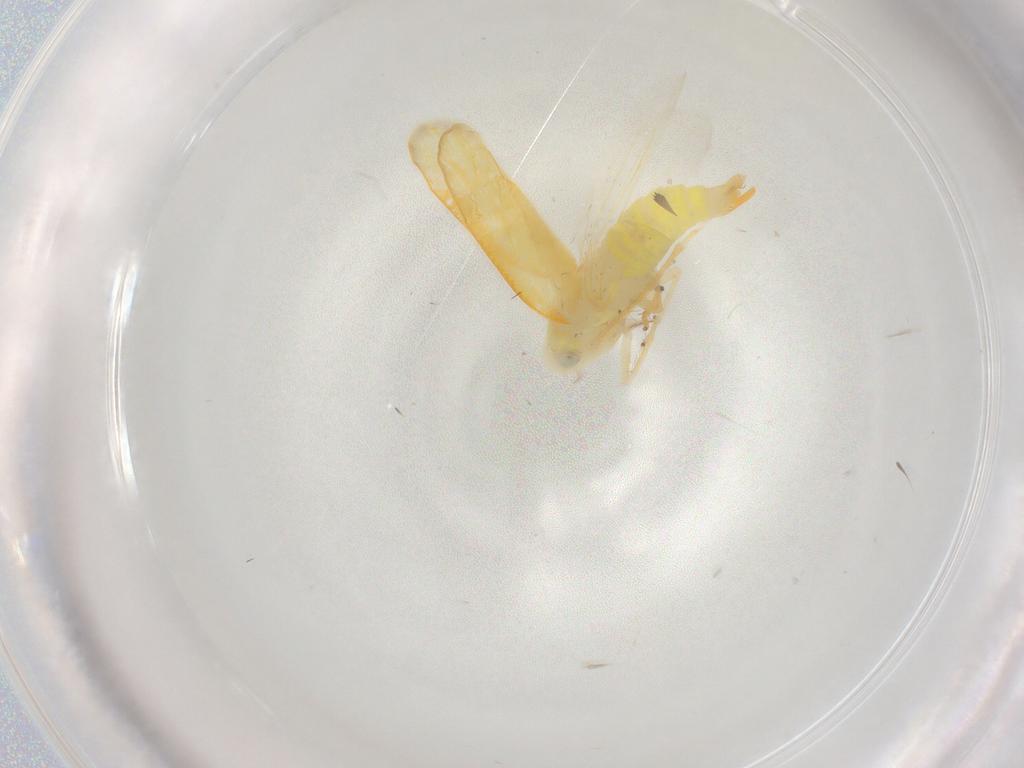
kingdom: Animalia
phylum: Arthropoda
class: Insecta
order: Hemiptera
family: Cicadellidae
